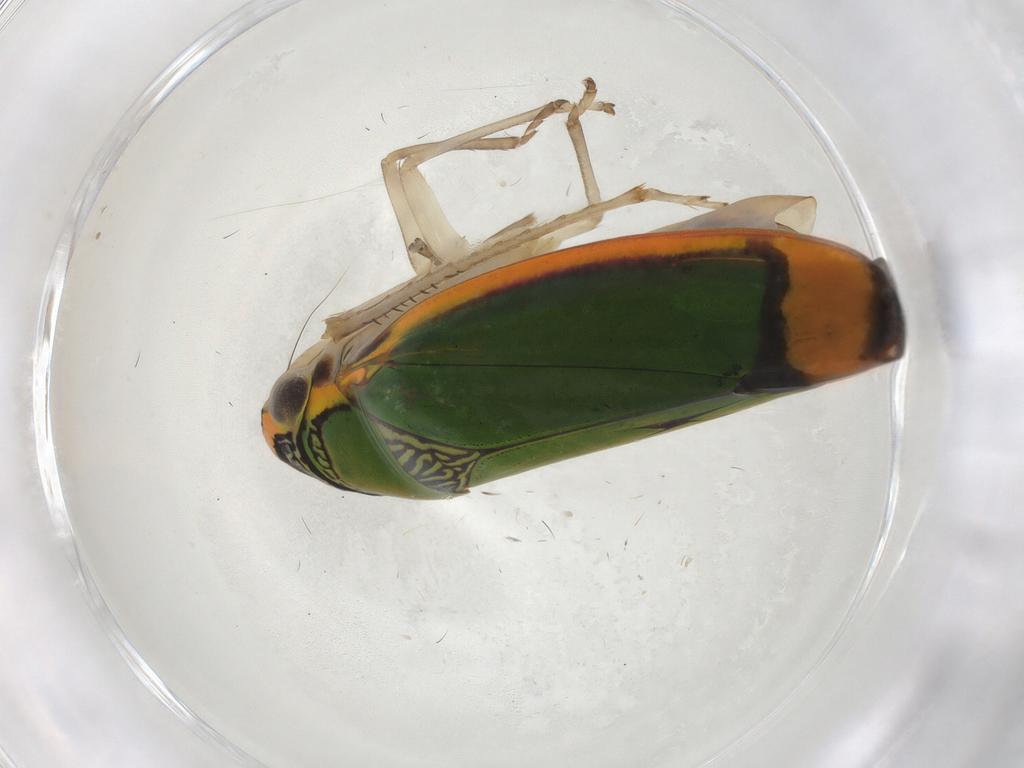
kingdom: Animalia
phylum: Arthropoda
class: Insecta
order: Hemiptera
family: Cicadellidae
